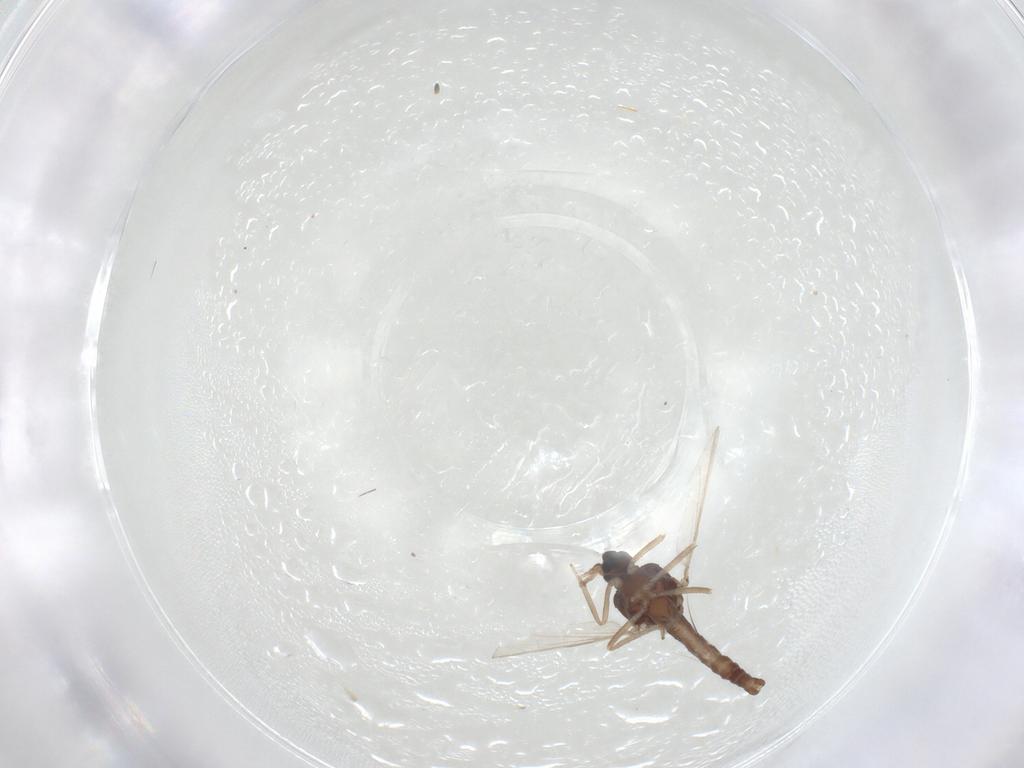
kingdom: Animalia
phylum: Arthropoda
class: Insecta
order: Diptera
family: Ceratopogonidae
